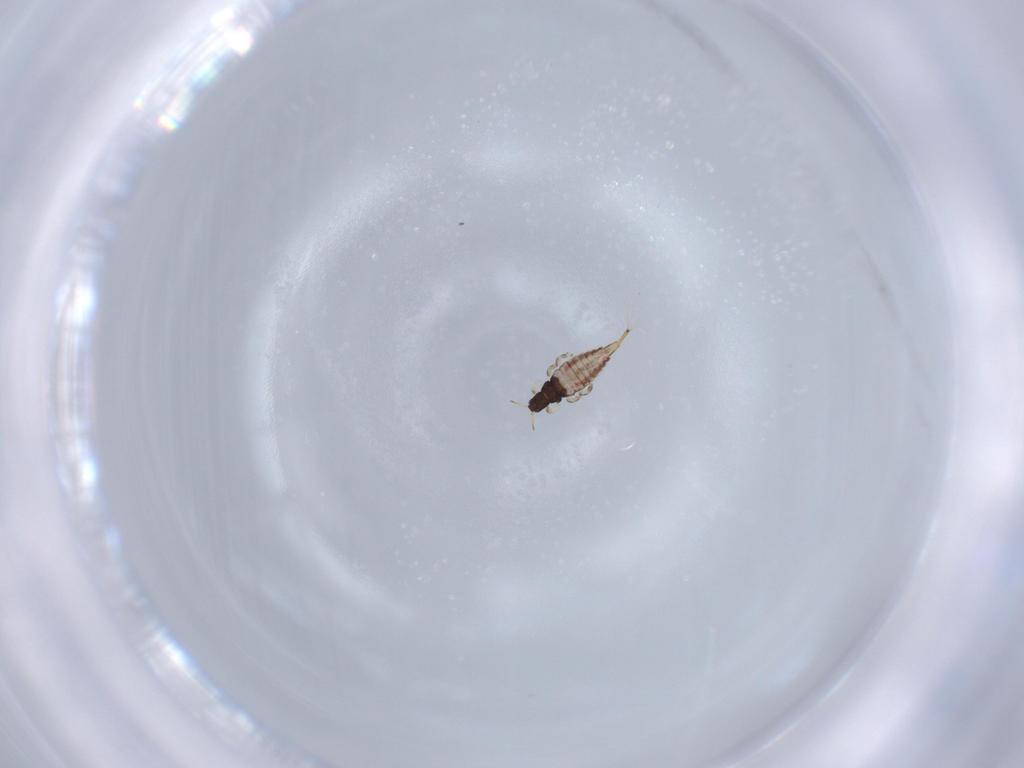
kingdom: Animalia
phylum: Arthropoda
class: Insecta
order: Thysanoptera
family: Phlaeothripidae
